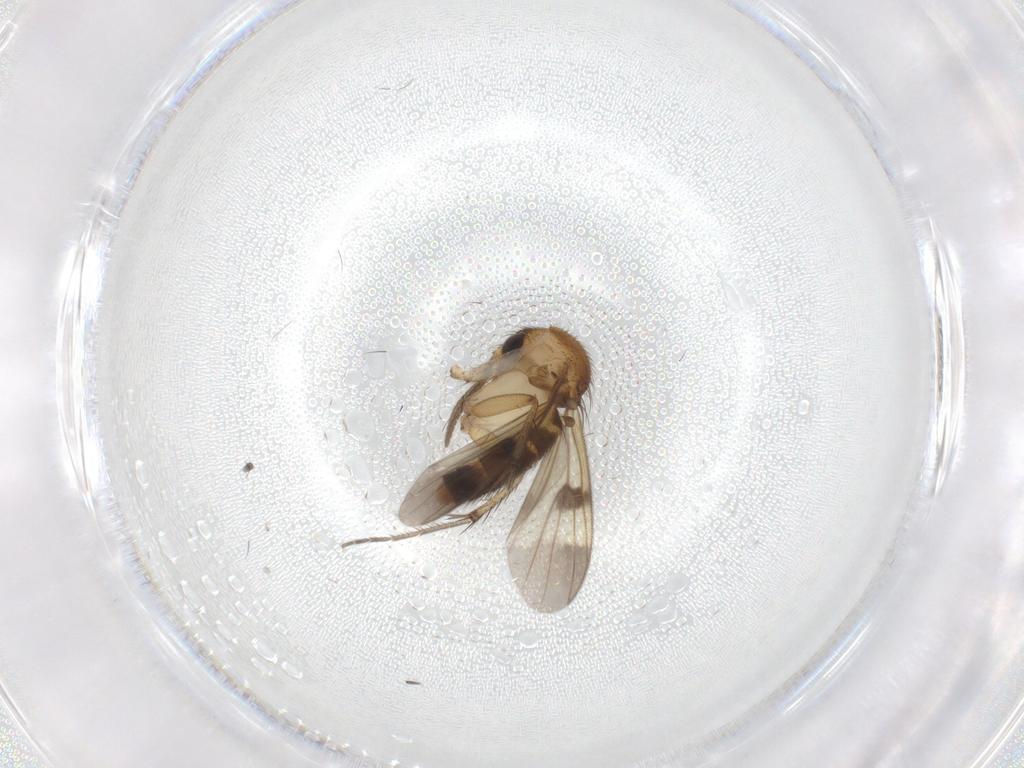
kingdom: Animalia
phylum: Arthropoda
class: Insecta
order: Diptera
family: Mycetophilidae
